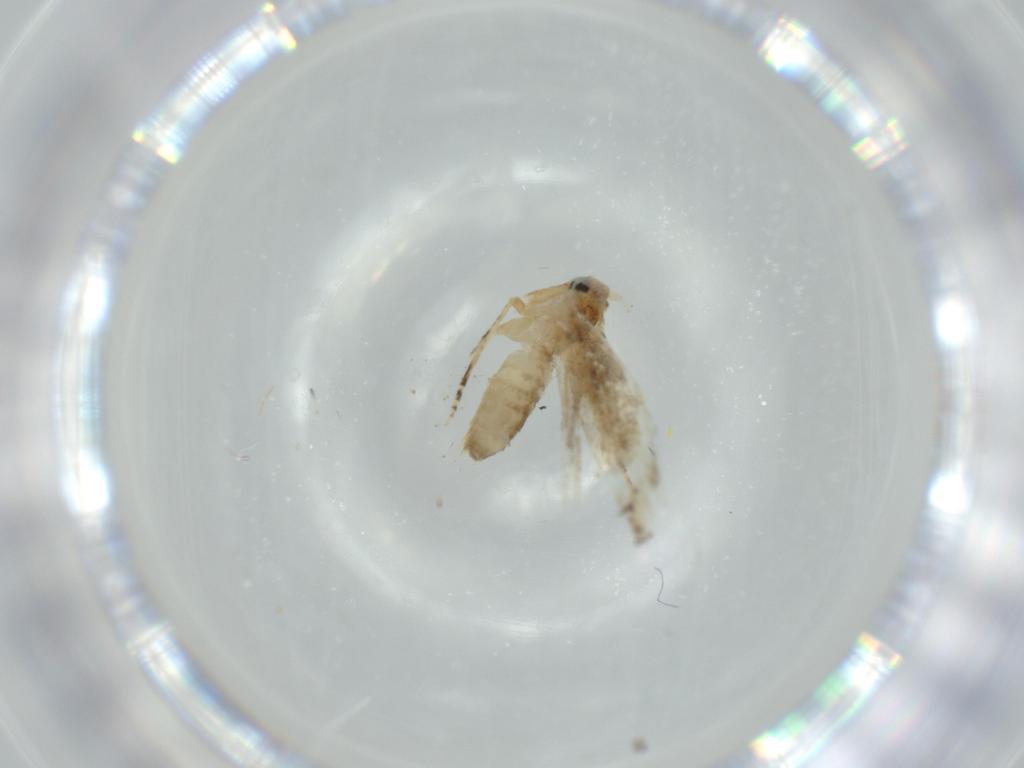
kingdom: Animalia
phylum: Arthropoda
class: Insecta
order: Lepidoptera
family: Bucculatricidae
